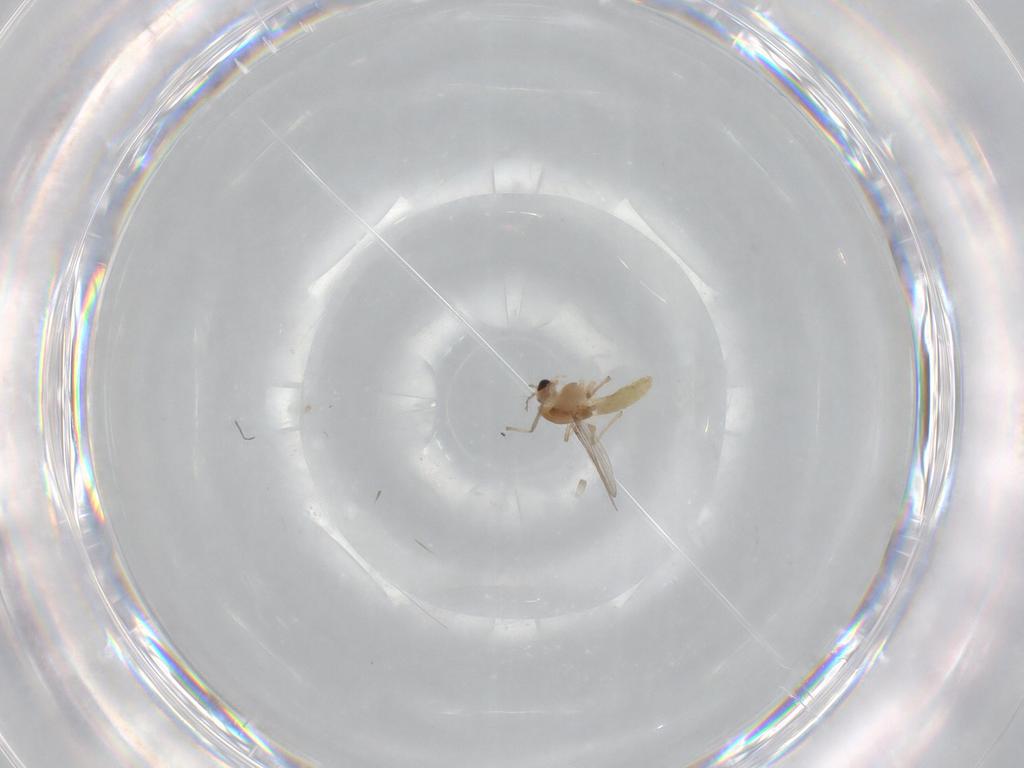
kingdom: Animalia
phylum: Arthropoda
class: Insecta
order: Diptera
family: Chironomidae
